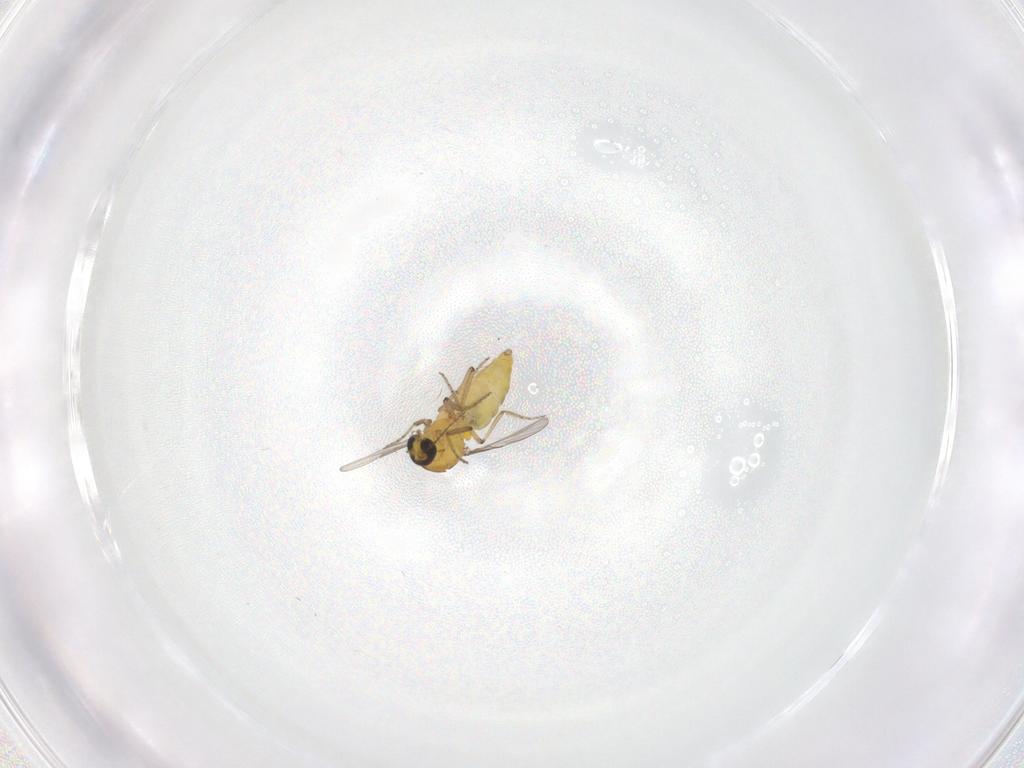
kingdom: Animalia
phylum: Arthropoda
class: Insecta
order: Diptera
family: Ceratopogonidae
